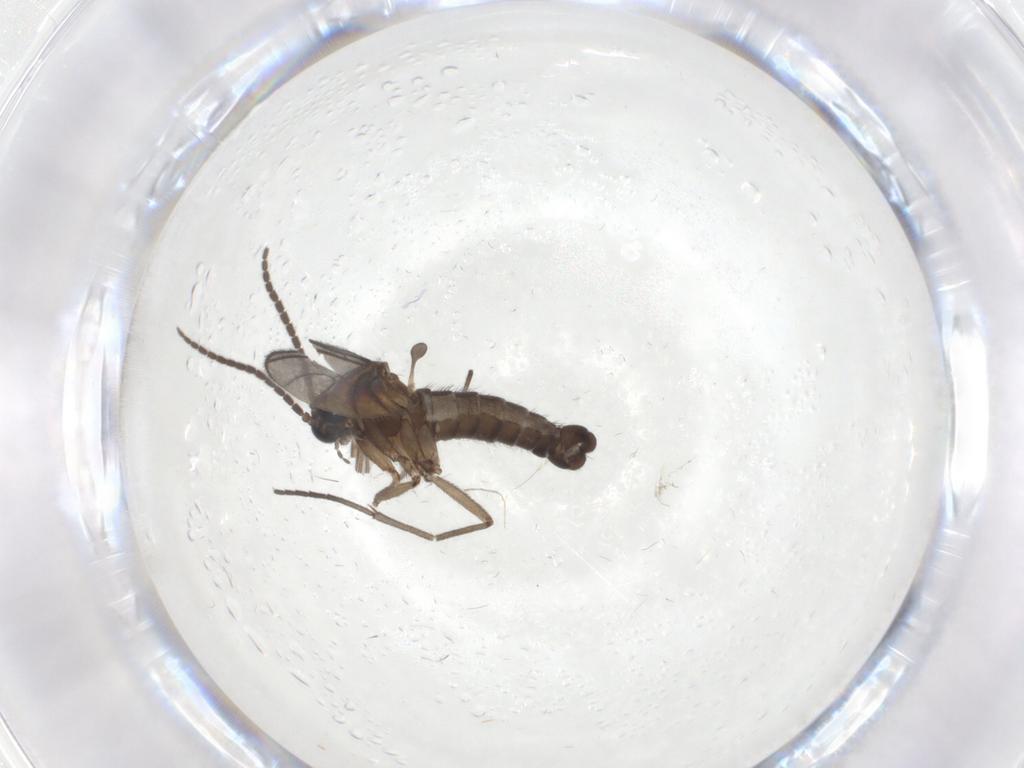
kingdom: Animalia
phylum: Arthropoda
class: Insecta
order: Diptera
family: Sciaridae
